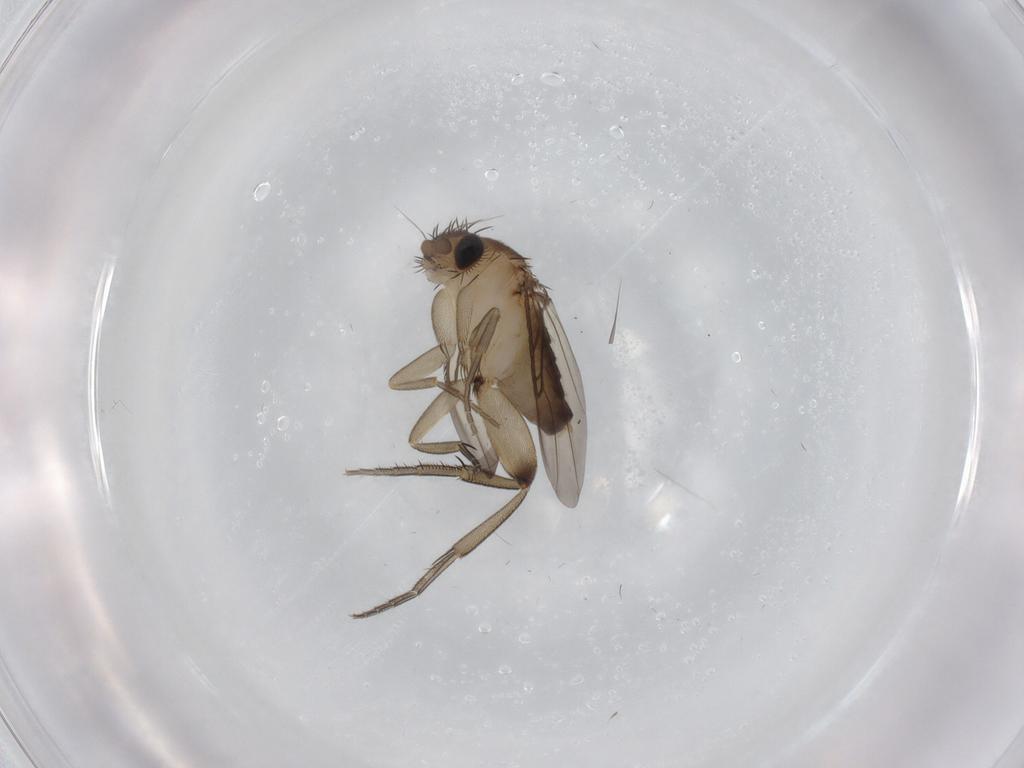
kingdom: Animalia
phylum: Arthropoda
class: Insecta
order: Diptera
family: Phoridae
